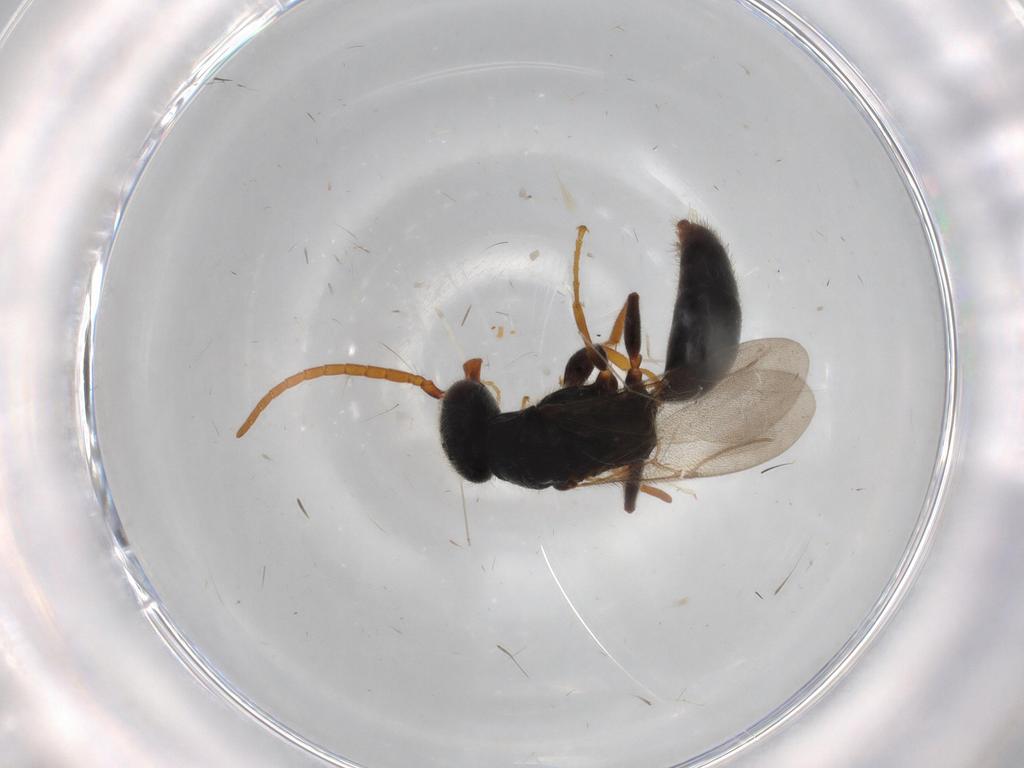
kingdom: Animalia
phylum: Arthropoda
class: Insecta
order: Hymenoptera
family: Bethylidae
